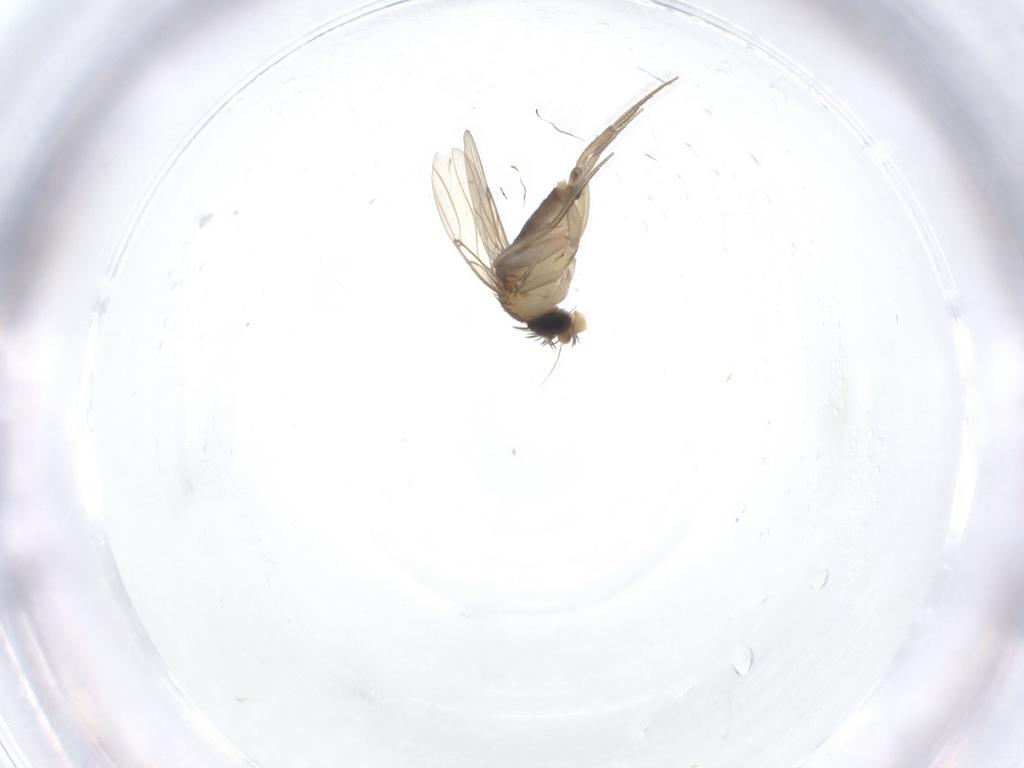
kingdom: Animalia
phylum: Arthropoda
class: Insecta
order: Diptera
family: Phoridae
